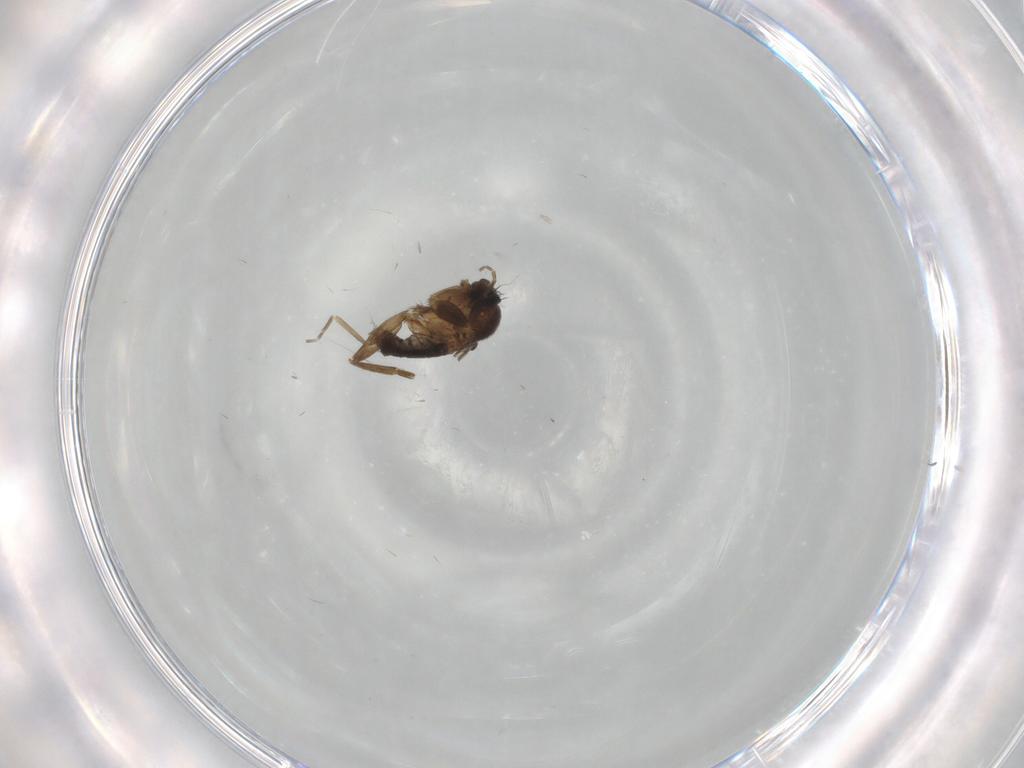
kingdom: Animalia
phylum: Arthropoda
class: Insecta
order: Diptera
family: Phoridae
